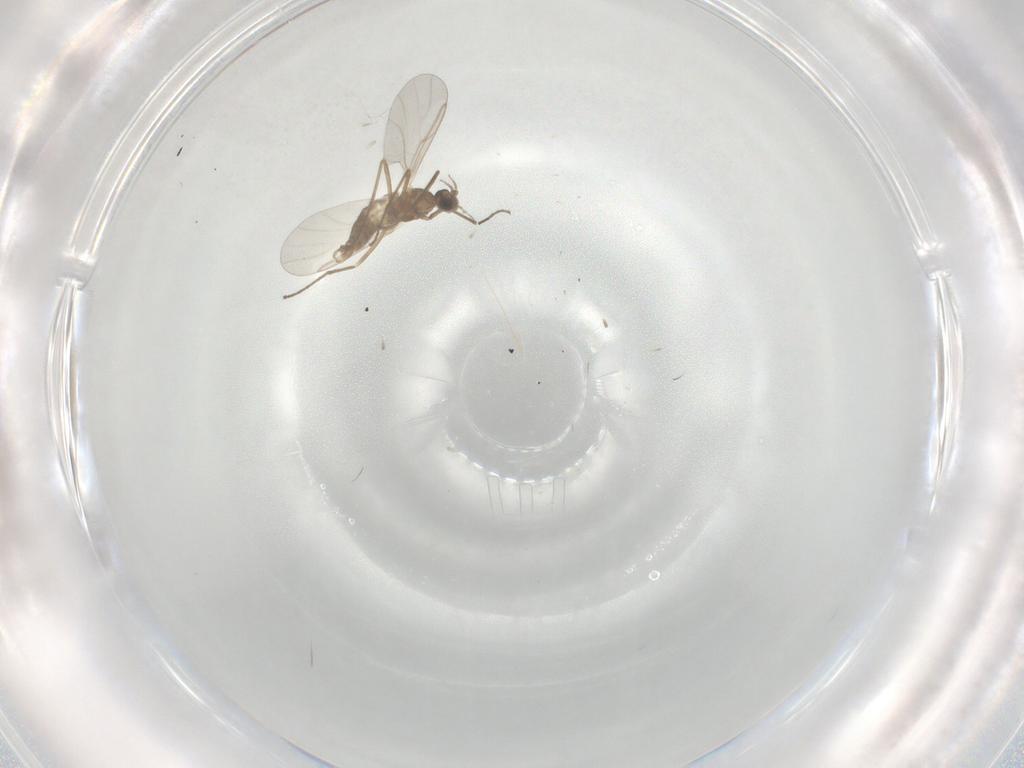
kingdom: Animalia
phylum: Arthropoda
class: Insecta
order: Diptera
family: Cecidomyiidae
